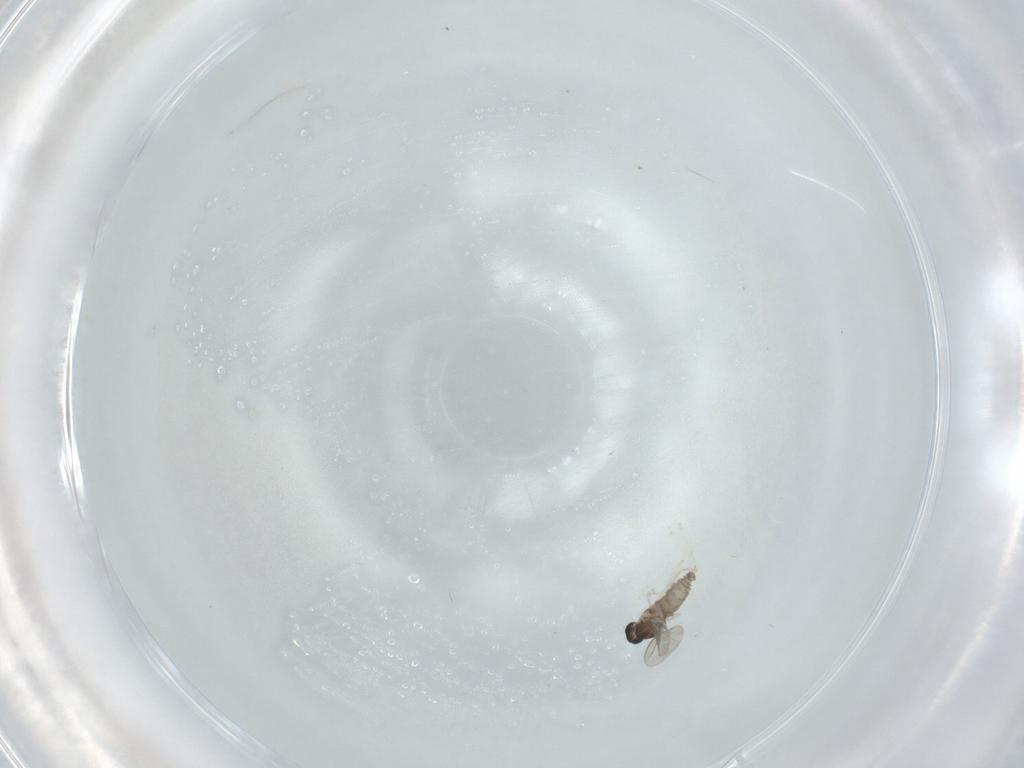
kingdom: Animalia
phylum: Arthropoda
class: Insecta
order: Diptera
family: Cecidomyiidae
